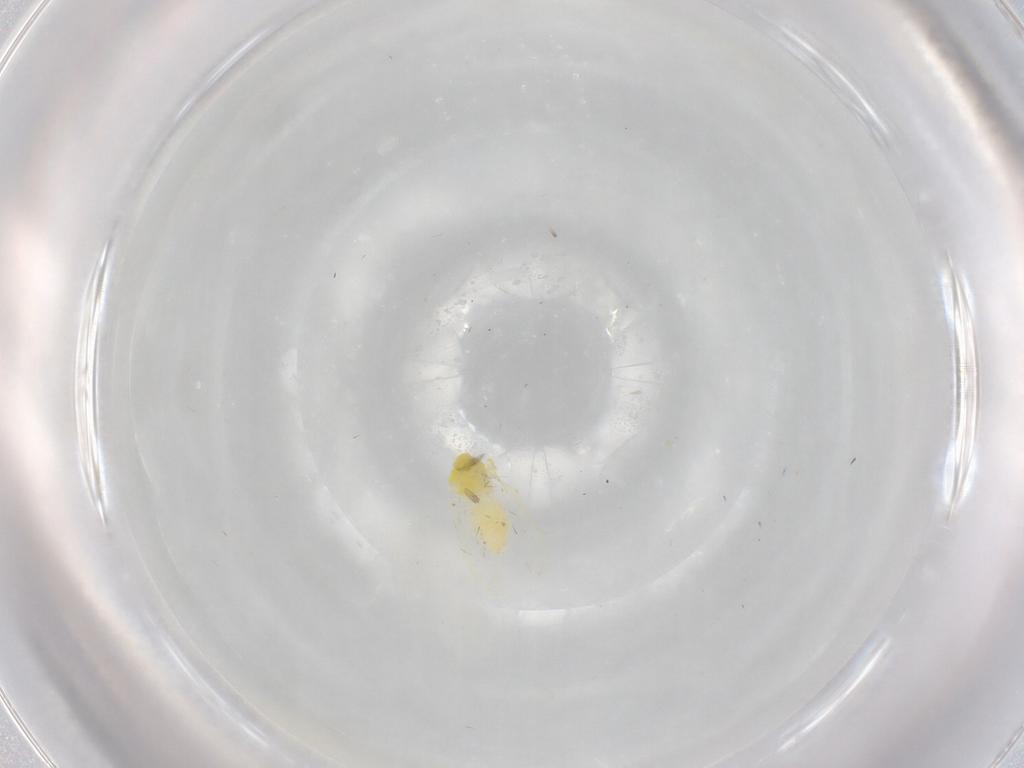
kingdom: Animalia
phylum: Arthropoda
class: Insecta
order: Hemiptera
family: Aleyrodidae
